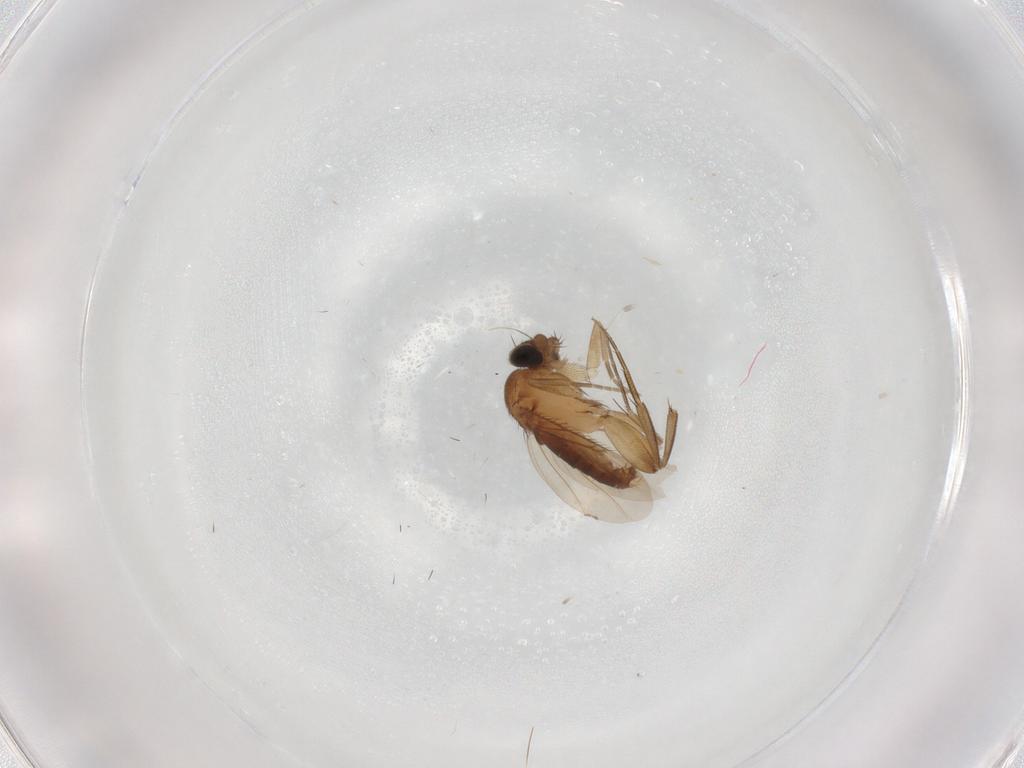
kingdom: Animalia
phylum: Arthropoda
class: Insecta
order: Diptera
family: Phoridae
